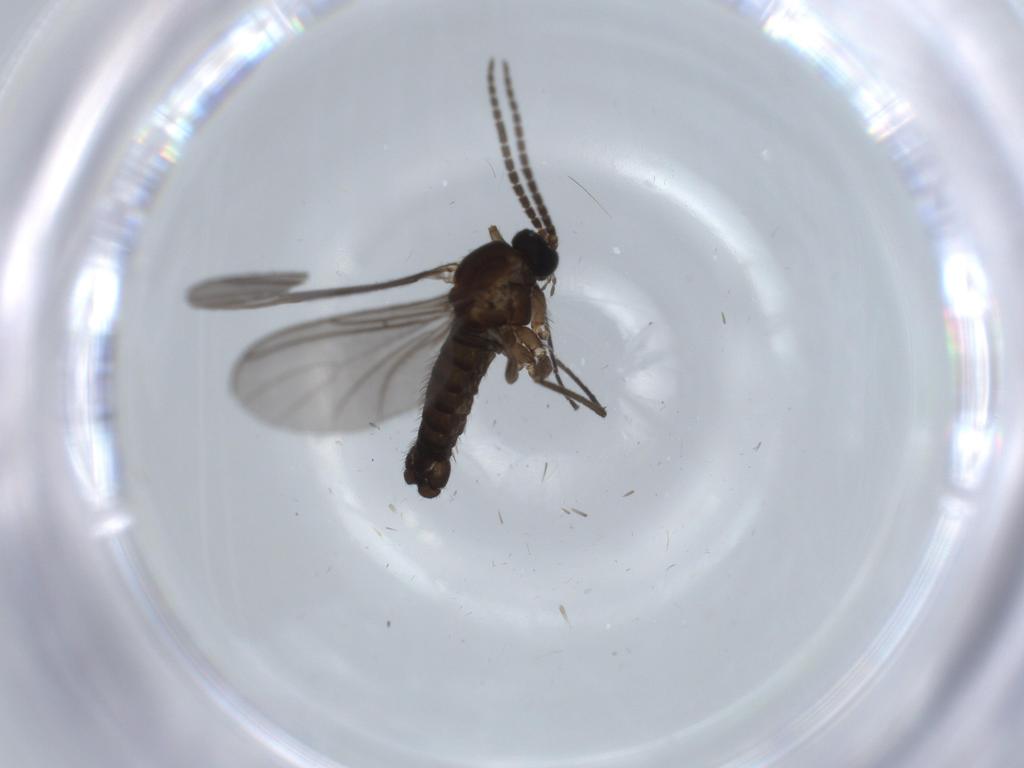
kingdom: Animalia
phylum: Arthropoda
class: Insecta
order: Diptera
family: Sciaridae
